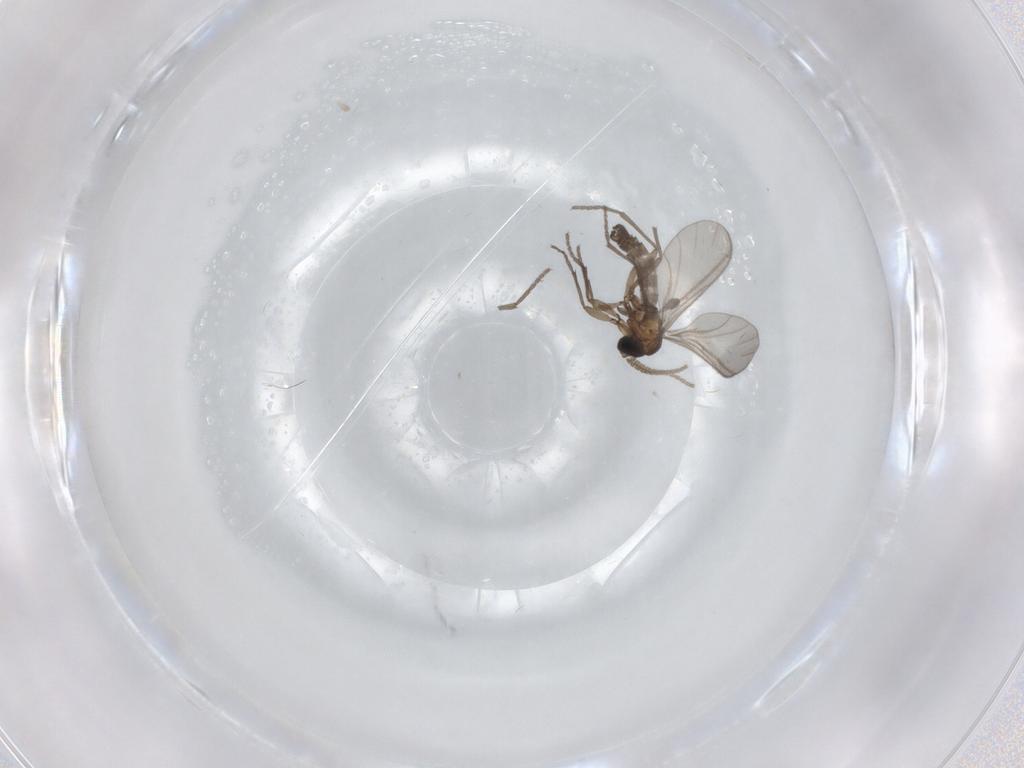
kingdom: Animalia
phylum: Arthropoda
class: Insecta
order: Diptera
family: Sciaridae
